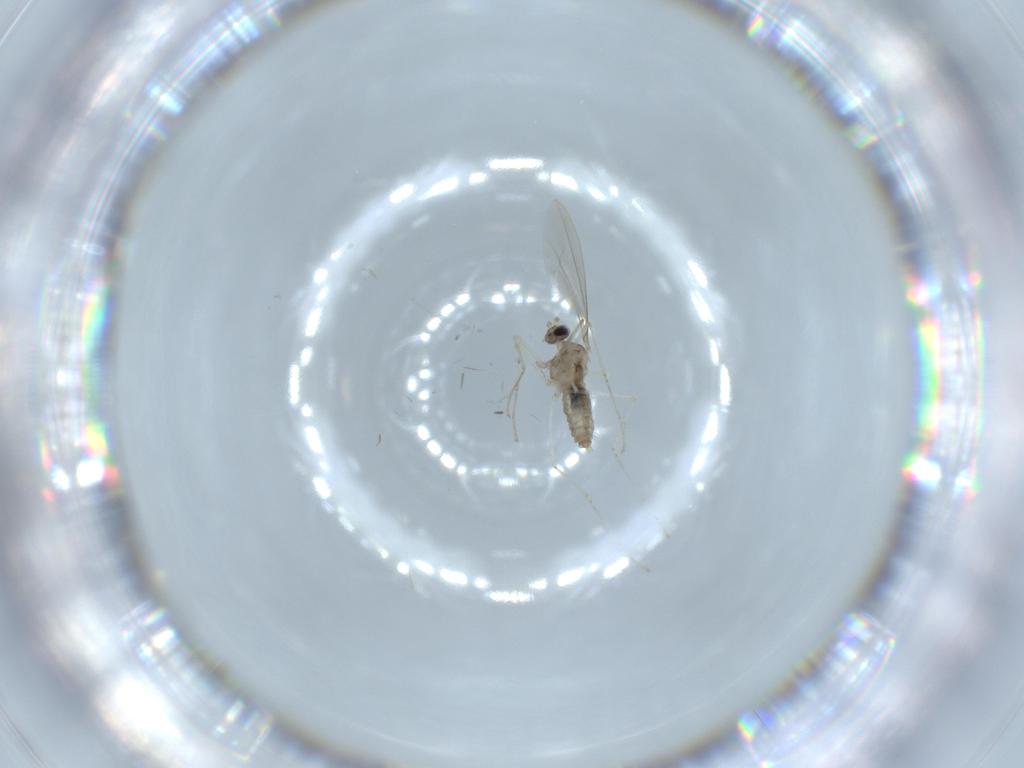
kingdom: Animalia
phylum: Arthropoda
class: Insecta
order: Diptera
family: Cecidomyiidae
